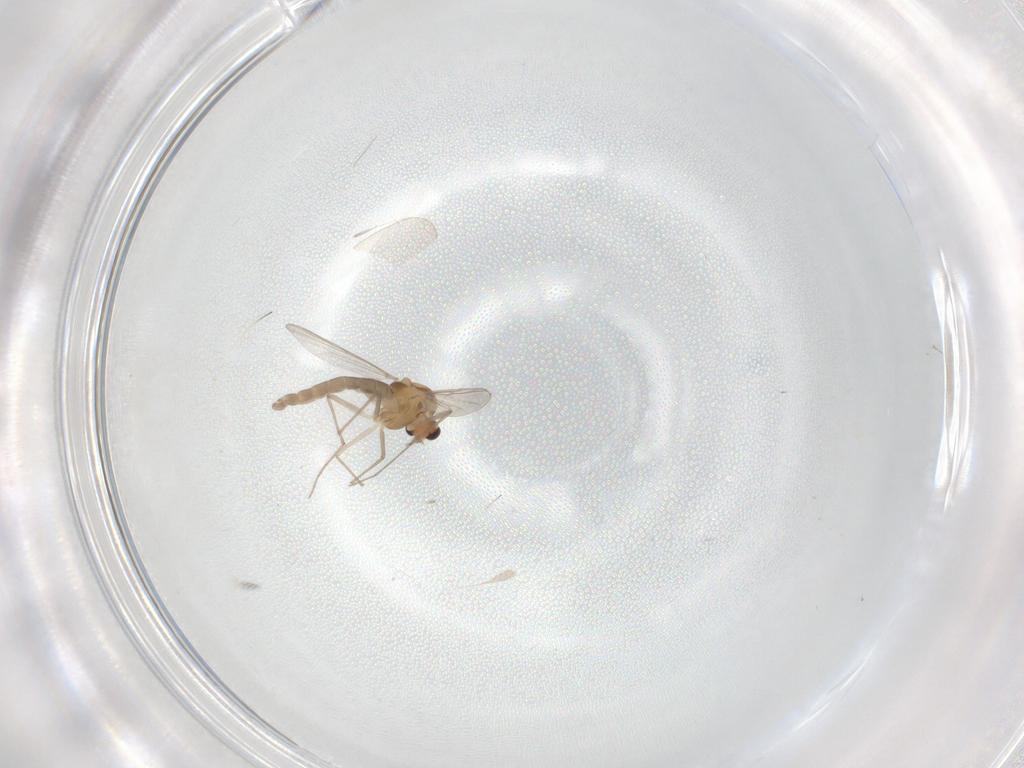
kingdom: Animalia
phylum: Arthropoda
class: Insecta
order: Diptera
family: Chironomidae
